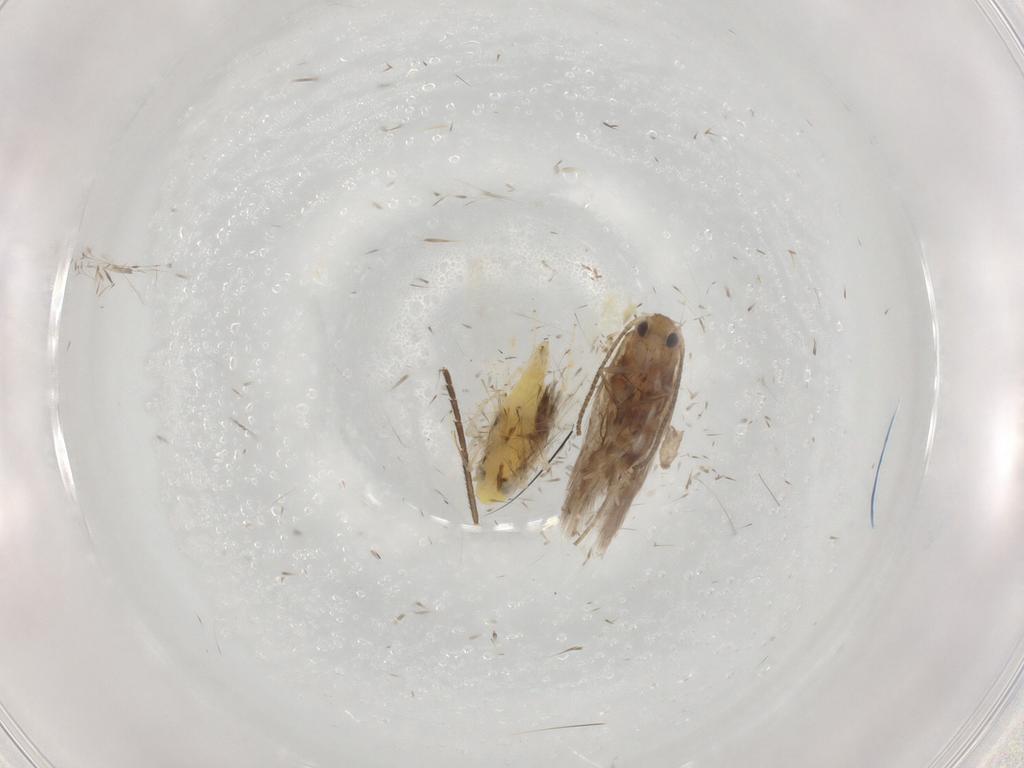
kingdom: Animalia
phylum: Arthropoda
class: Insecta
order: Diptera
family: Cecidomyiidae
